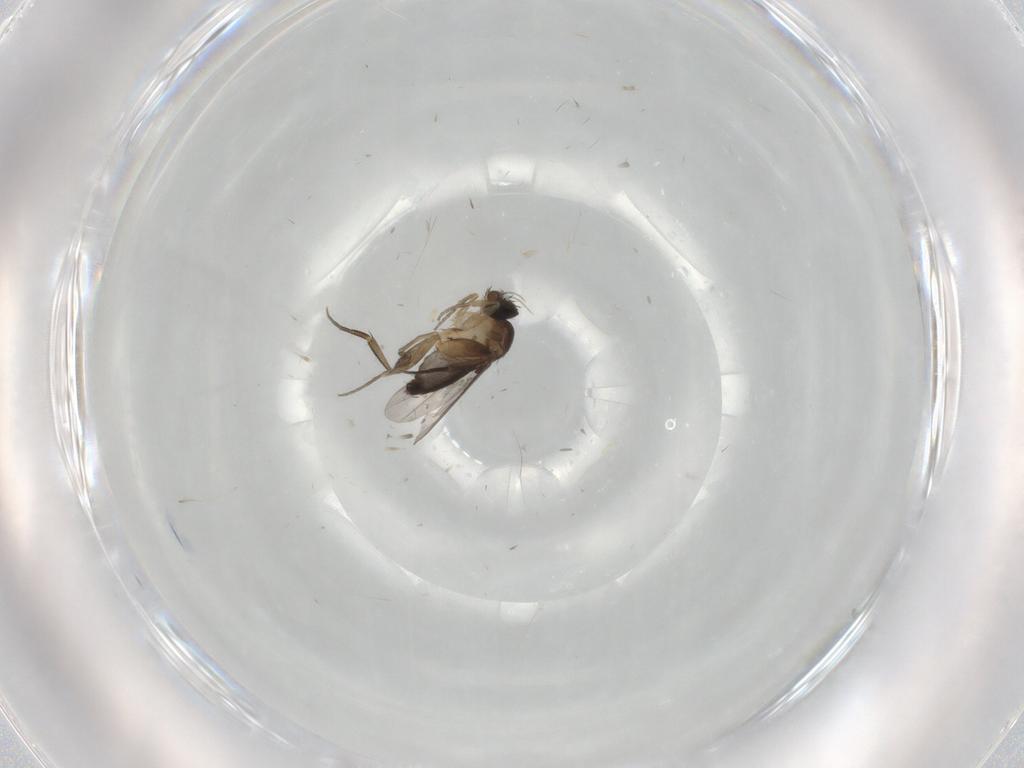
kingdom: Animalia
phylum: Arthropoda
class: Insecta
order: Diptera
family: Phoridae
